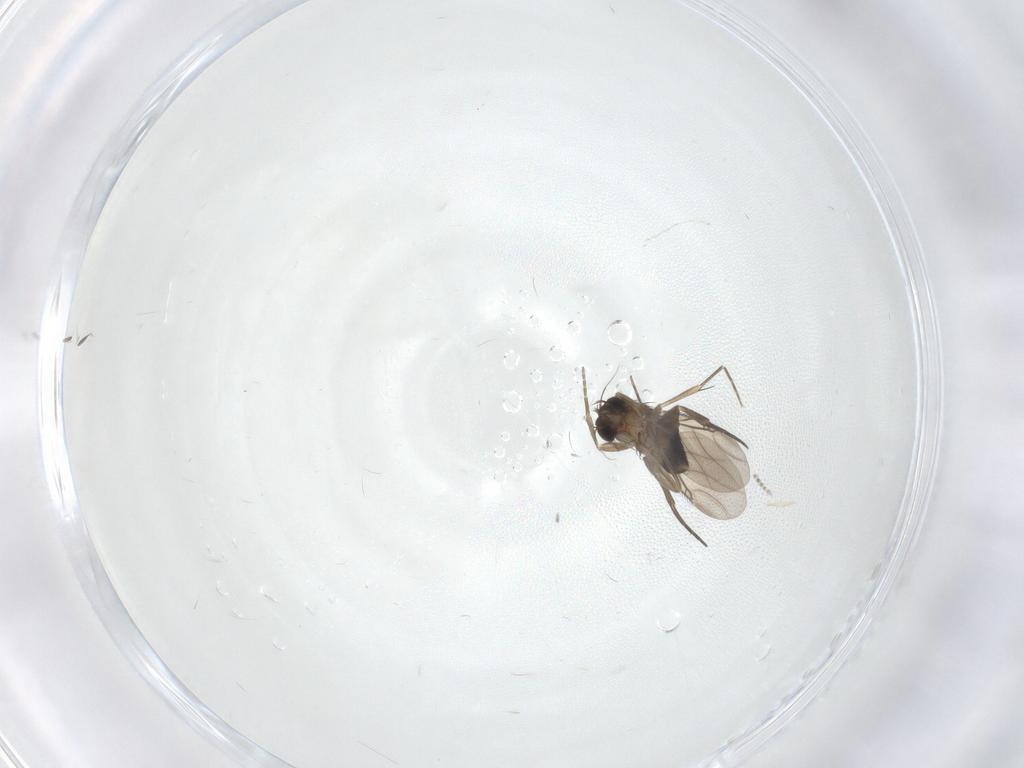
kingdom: Animalia
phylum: Arthropoda
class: Insecta
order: Diptera
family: Phoridae
